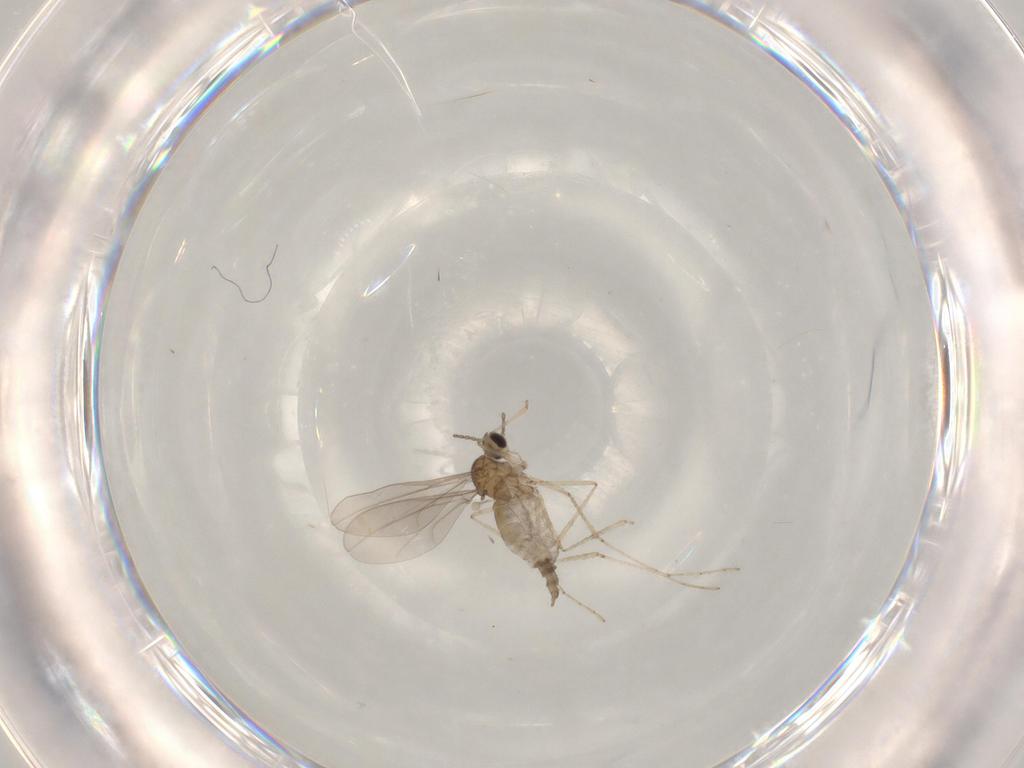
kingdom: Animalia
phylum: Arthropoda
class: Insecta
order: Diptera
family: Cecidomyiidae
